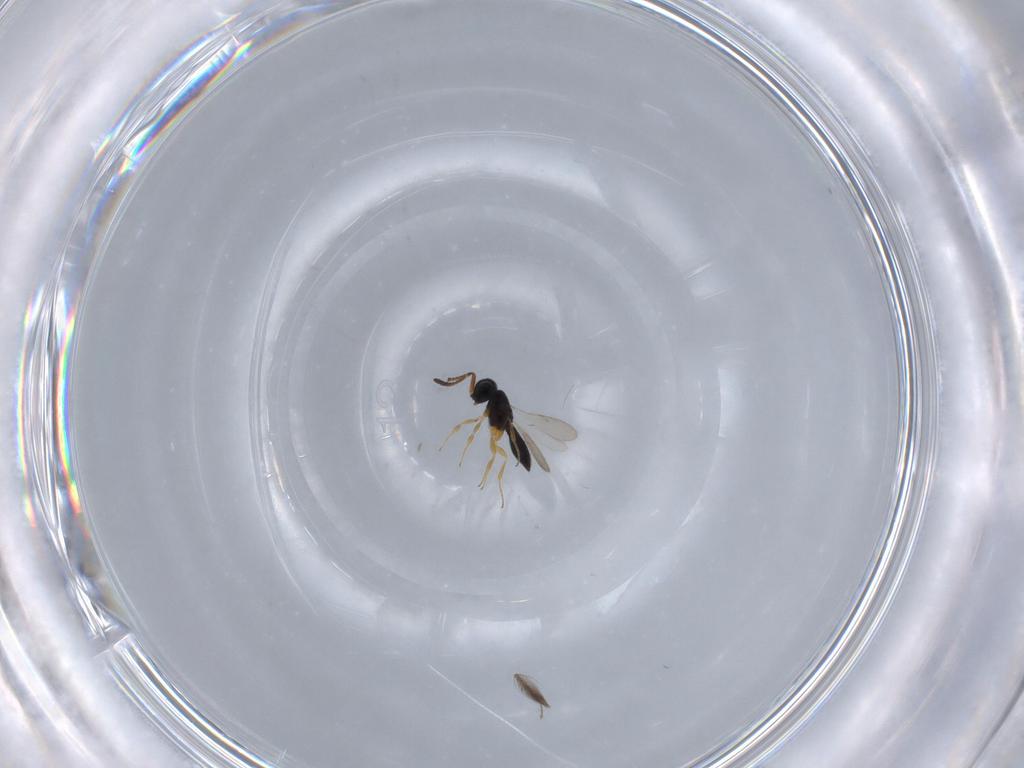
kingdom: Animalia
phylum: Arthropoda
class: Insecta
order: Hymenoptera
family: Scelionidae
